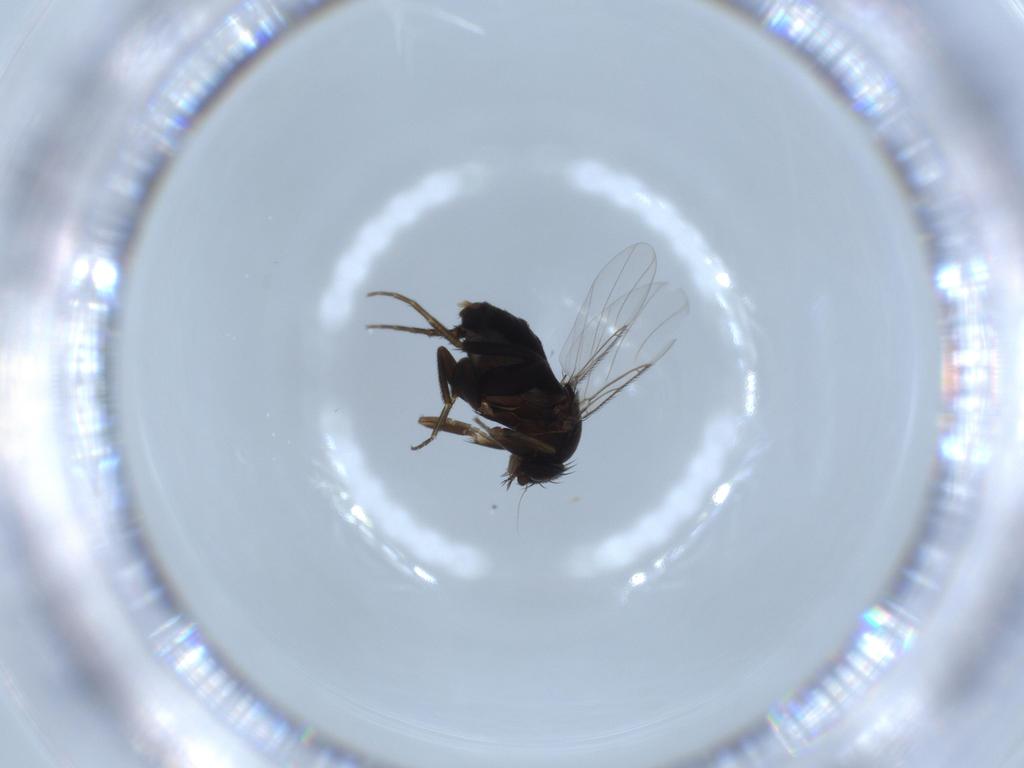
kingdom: Animalia
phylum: Arthropoda
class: Insecta
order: Diptera
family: Phoridae
